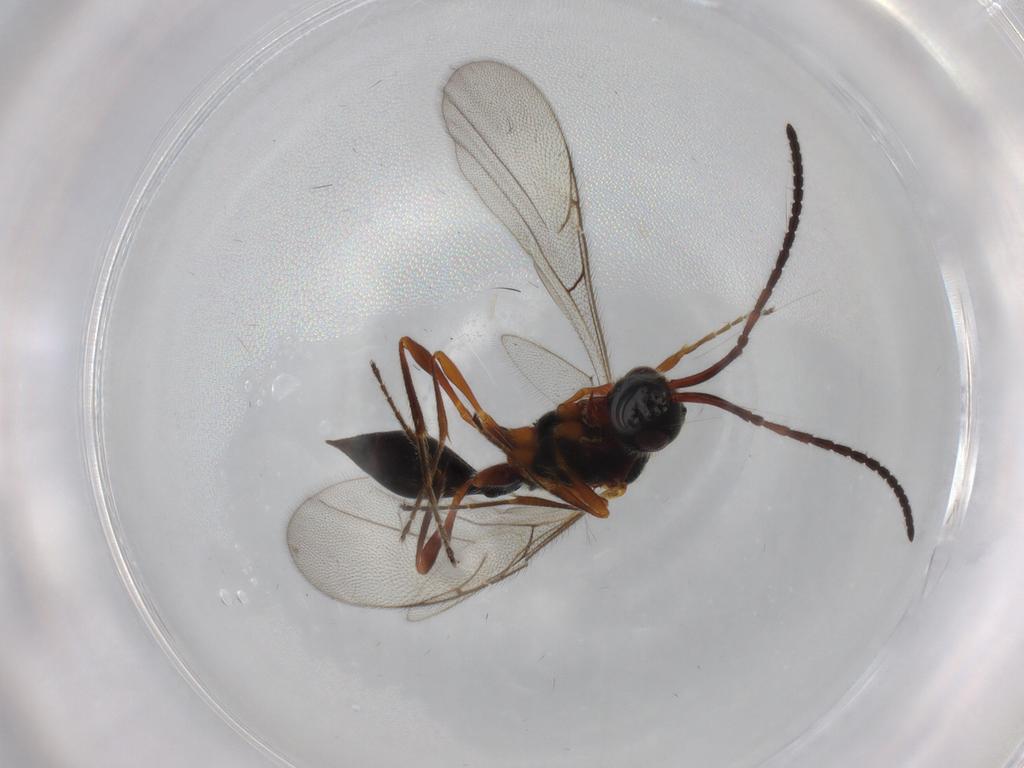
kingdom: Animalia
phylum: Arthropoda
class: Insecta
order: Hymenoptera
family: Diapriidae
